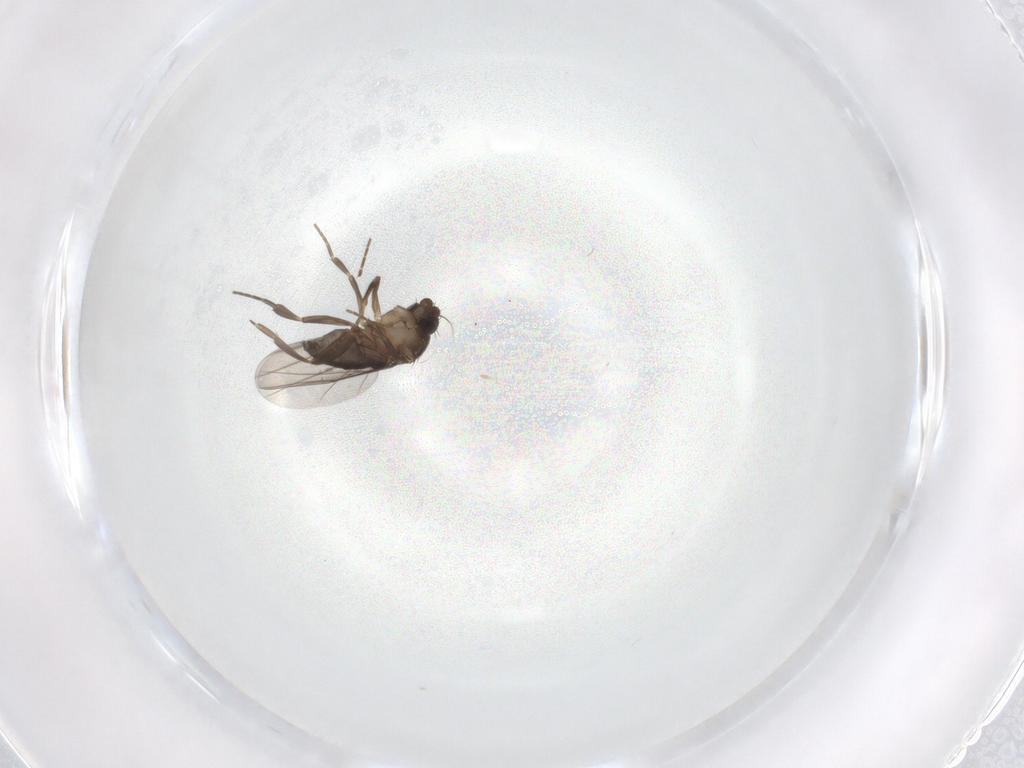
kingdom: Animalia
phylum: Arthropoda
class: Insecta
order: Diptera
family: Phoridae
